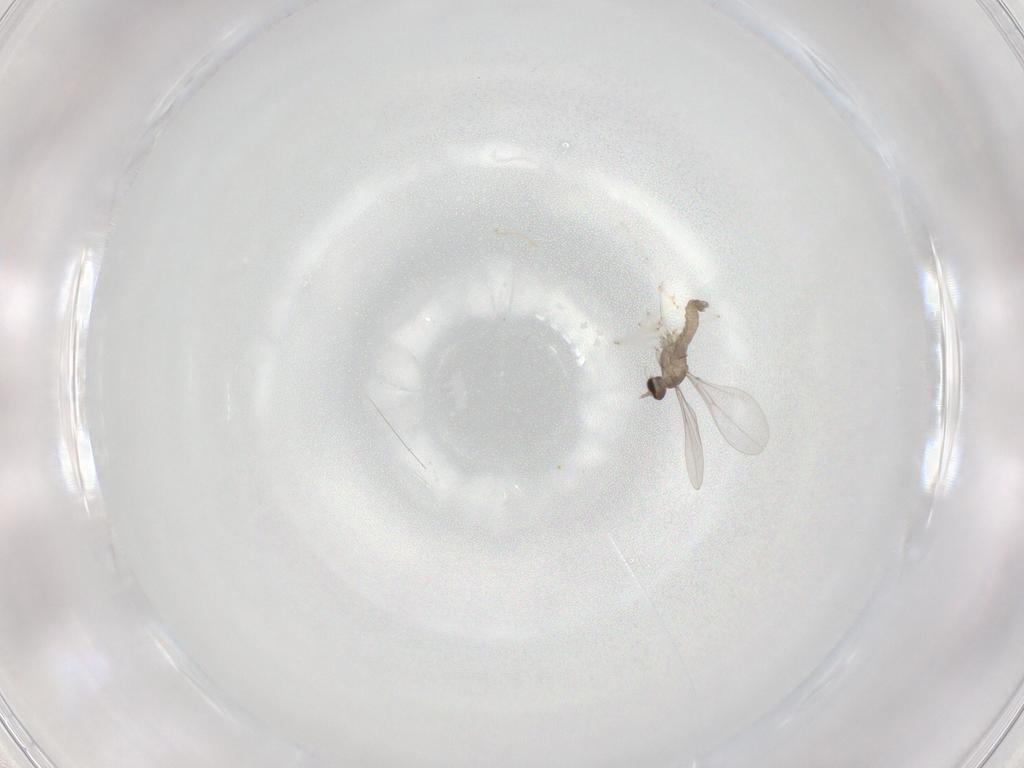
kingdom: Animalia
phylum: Arthropoda
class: Insecta
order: Diptera
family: Cecidomyiidae
